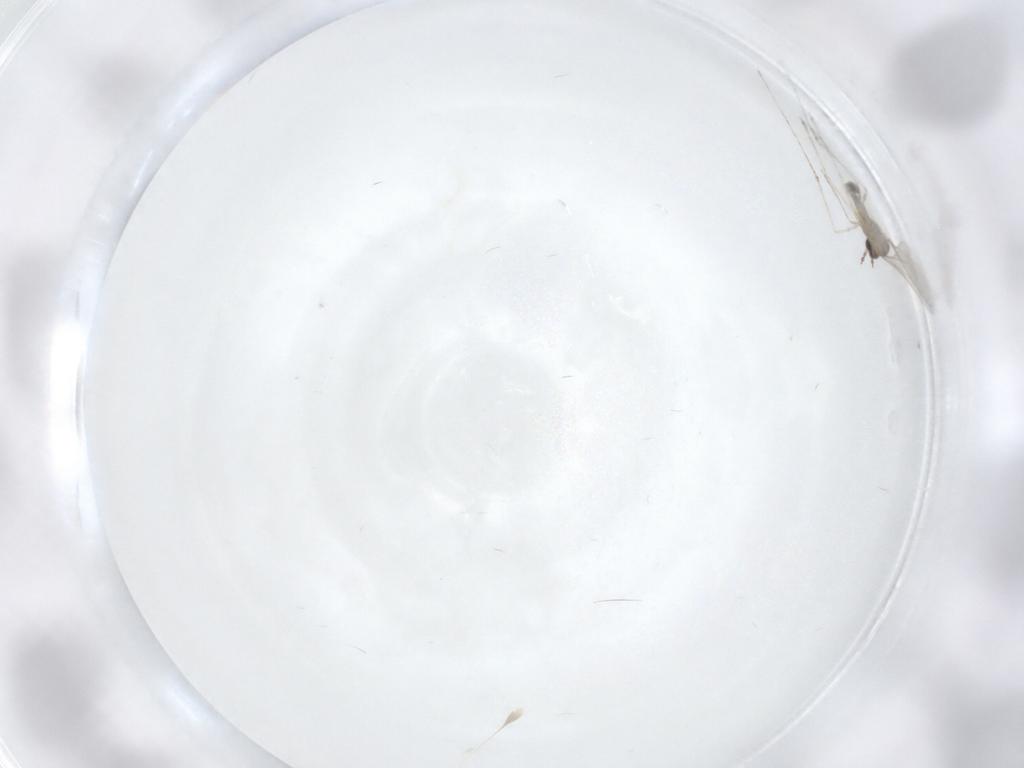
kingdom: Animalia
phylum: Arthropoda
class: Insecta
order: Diptera
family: Cecidomyiidae
